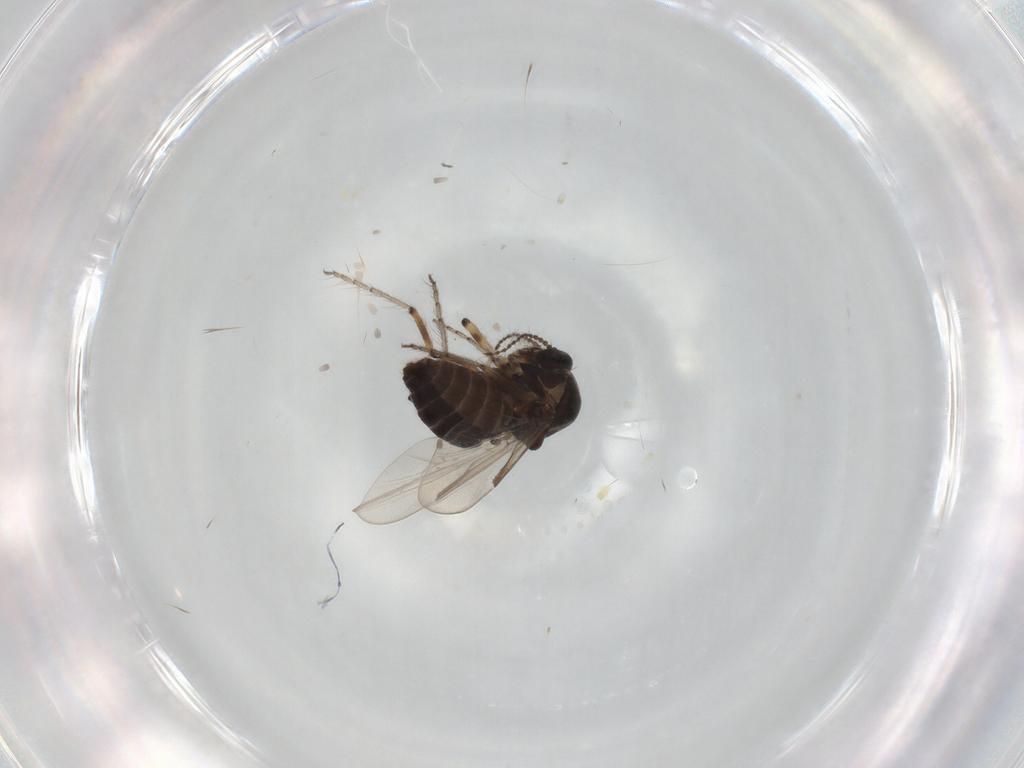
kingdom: Animalia
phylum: Arthropoda
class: Insecta
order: Diptera
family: Ceratopogonidae
